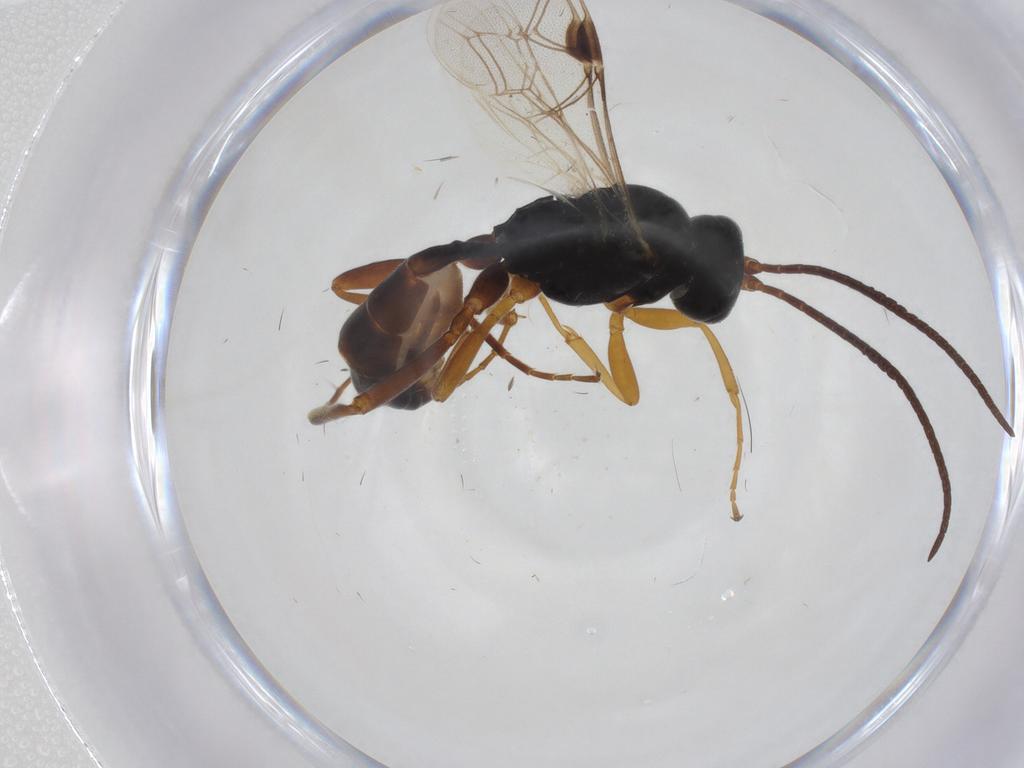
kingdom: Animalia
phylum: Arthropoda
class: Insecta
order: Hymenoptera
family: Ichneumonidae
